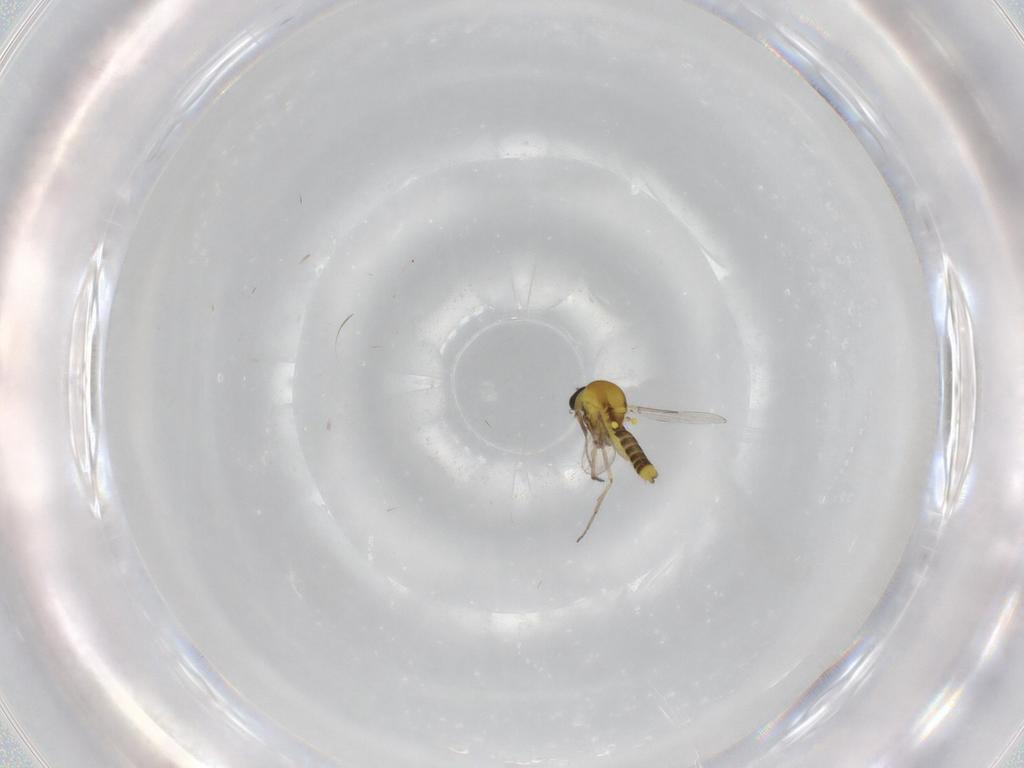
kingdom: Animalia
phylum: Arthropoda
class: Insecta
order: Diptera
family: Ceratopogonidae
